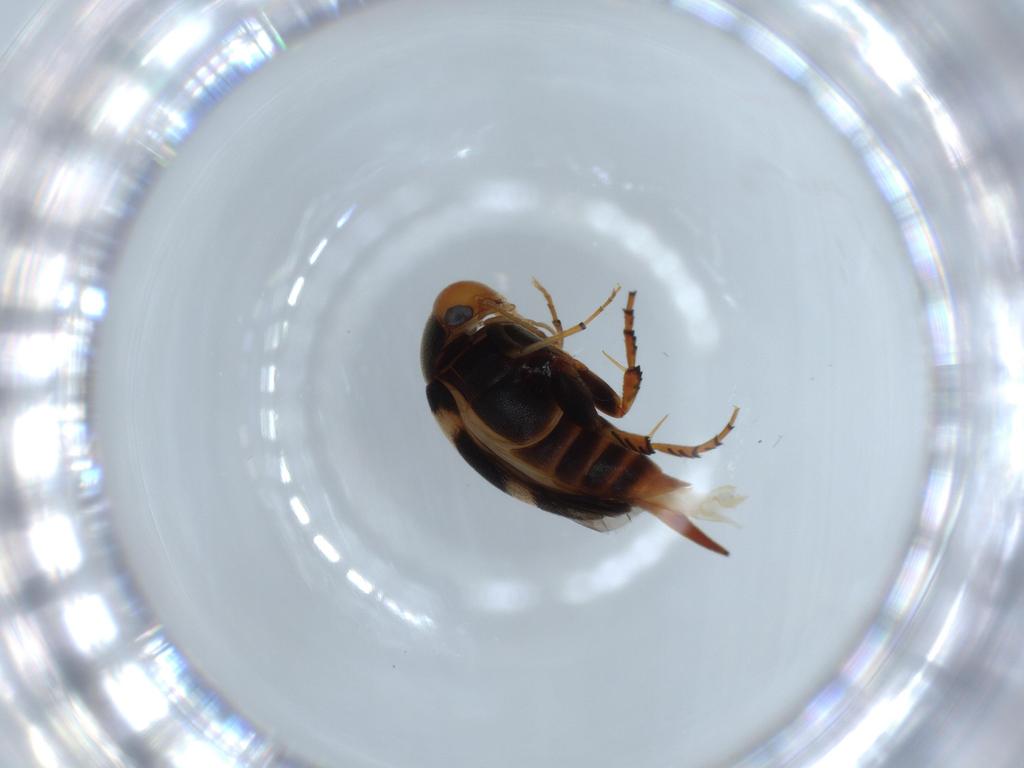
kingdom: Animalia
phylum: Arthropoda
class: Insecta
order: Coleoptera
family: Mordellidae
